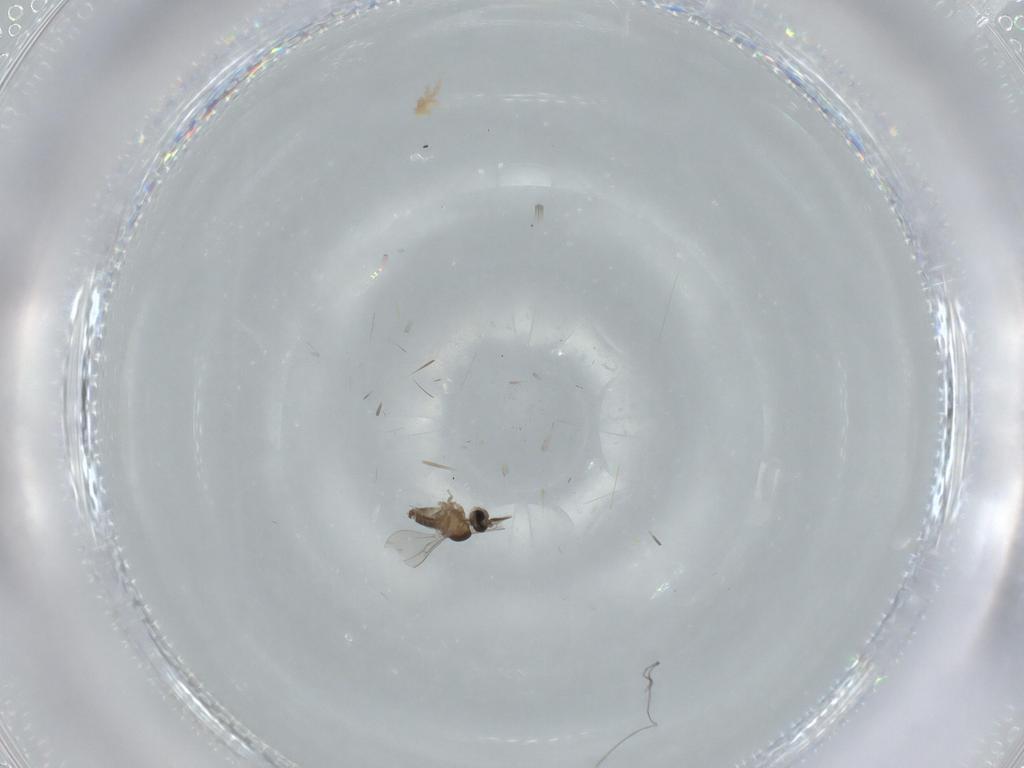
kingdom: Animalia
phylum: Arthropoda
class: Insecta
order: Diptera
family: Cecidomyiidae
